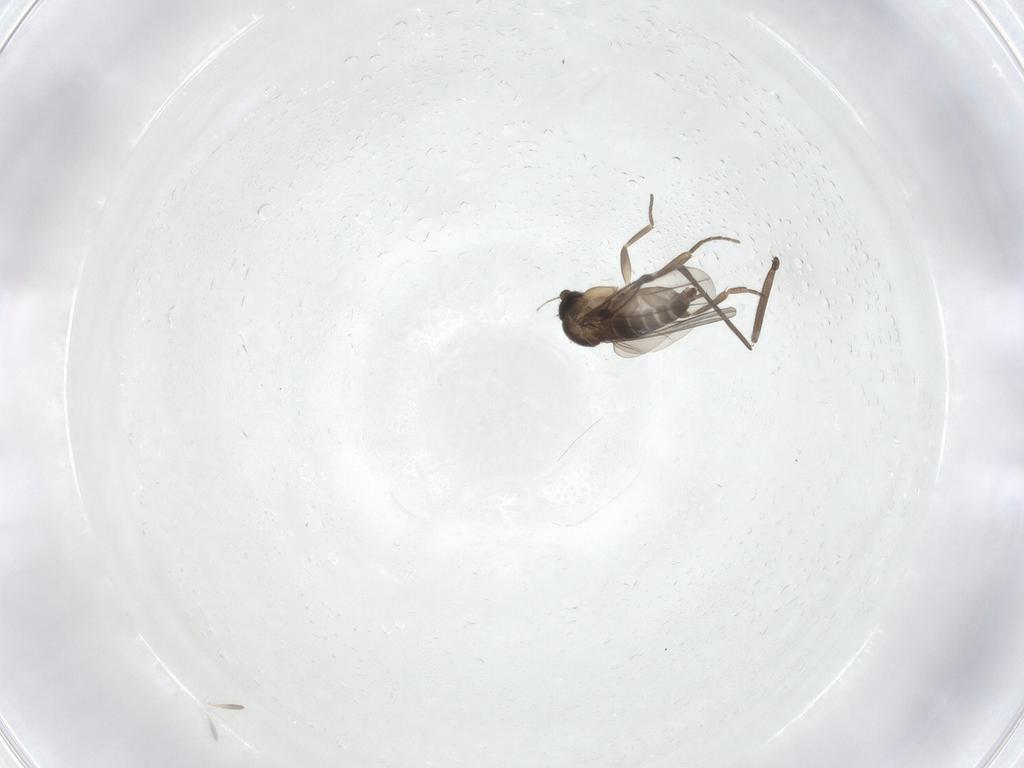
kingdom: Animalia
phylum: Arthropoda
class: Insecta
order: Diptera
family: Sciaridae
